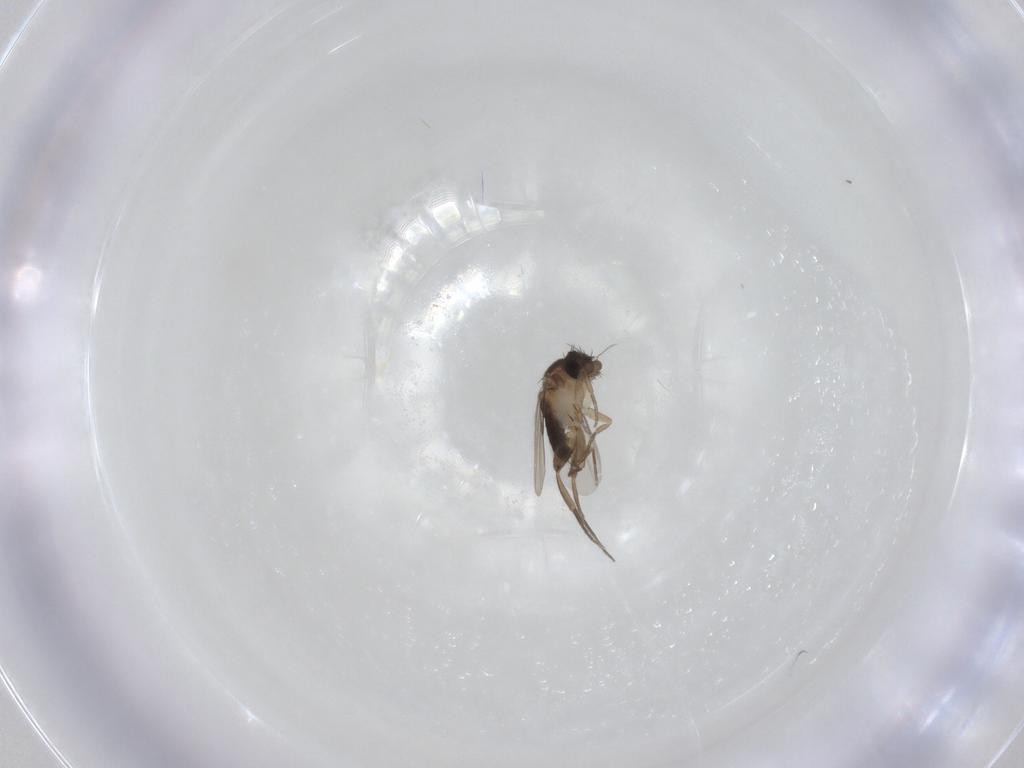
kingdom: Animalia
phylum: Arthropoda
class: Insecta
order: Diptera
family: Phoridae
